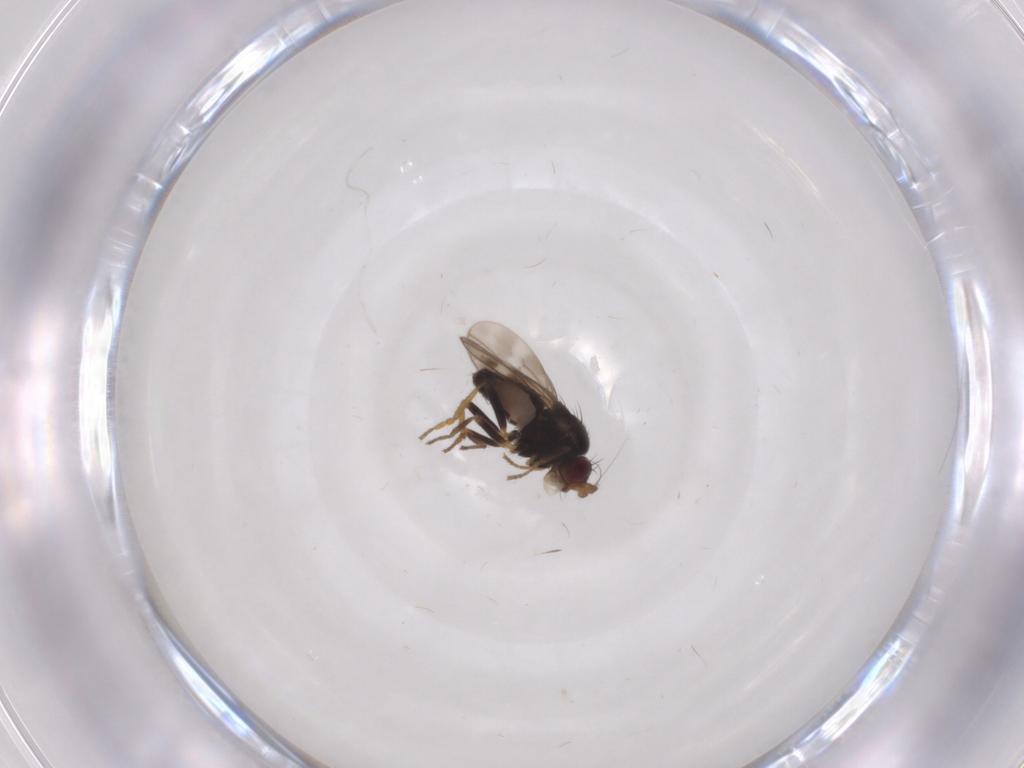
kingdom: Animalia
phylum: Arthropoda
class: Insecta
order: Diptera
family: Sphaeroceridae
